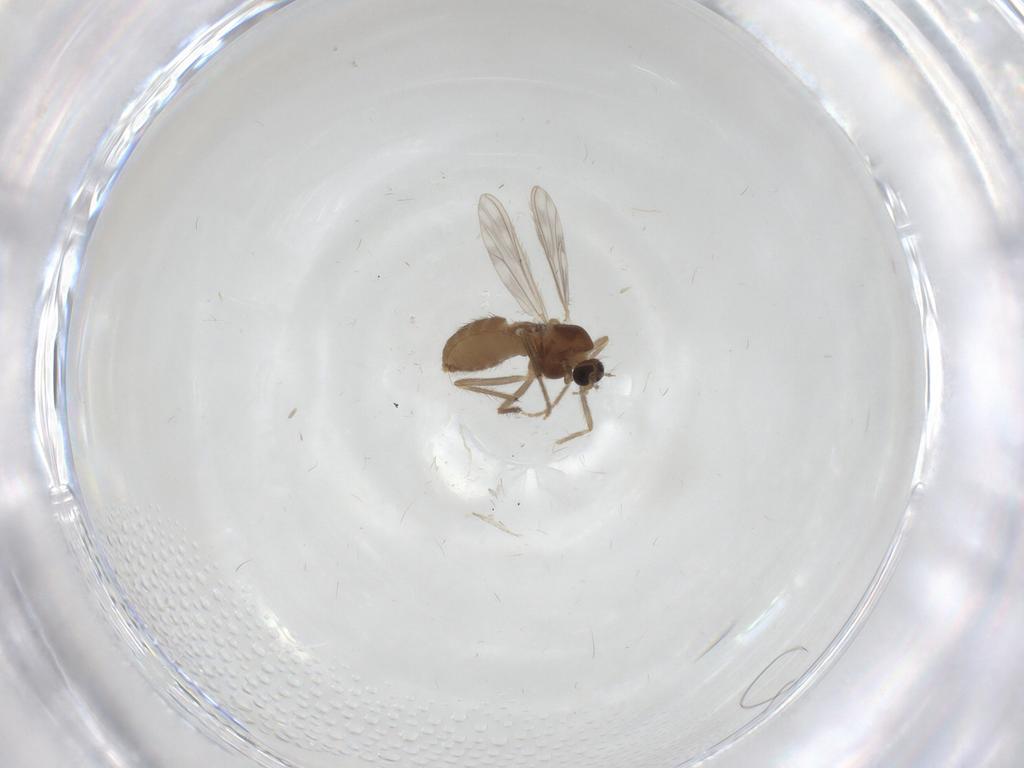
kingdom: Animalia
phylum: Arthropoda
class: Insecta
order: Diptera
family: Chironomidae
